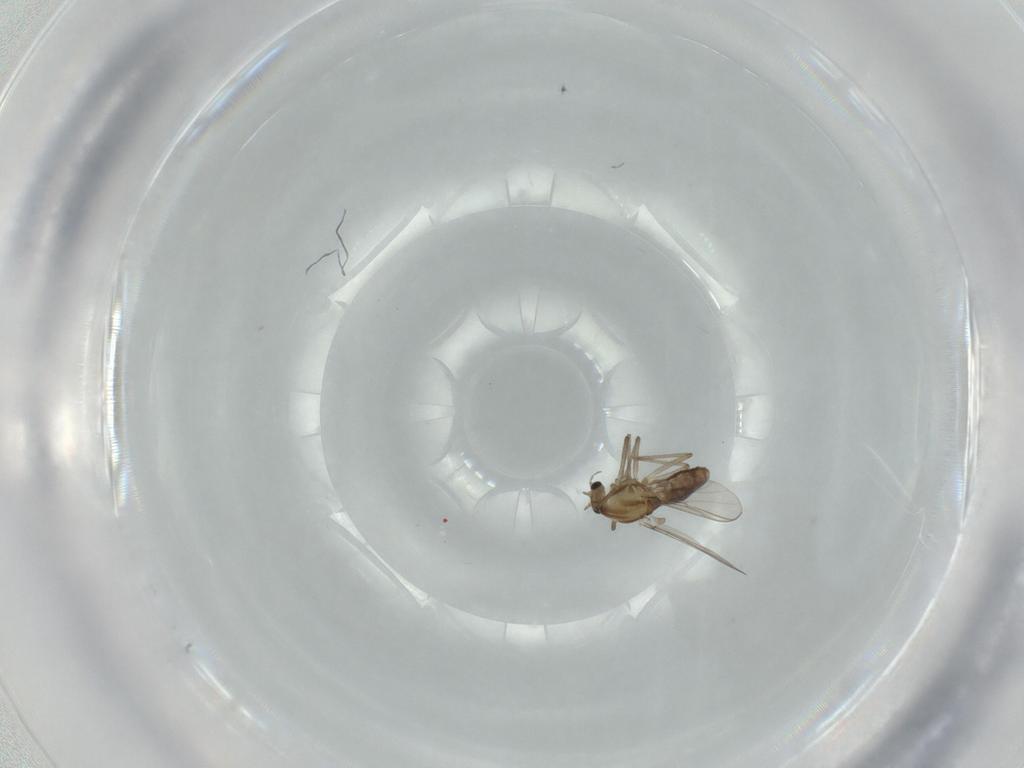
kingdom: Animalia
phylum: Arthropoda
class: Insecta
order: Diptera
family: Chironomidae
